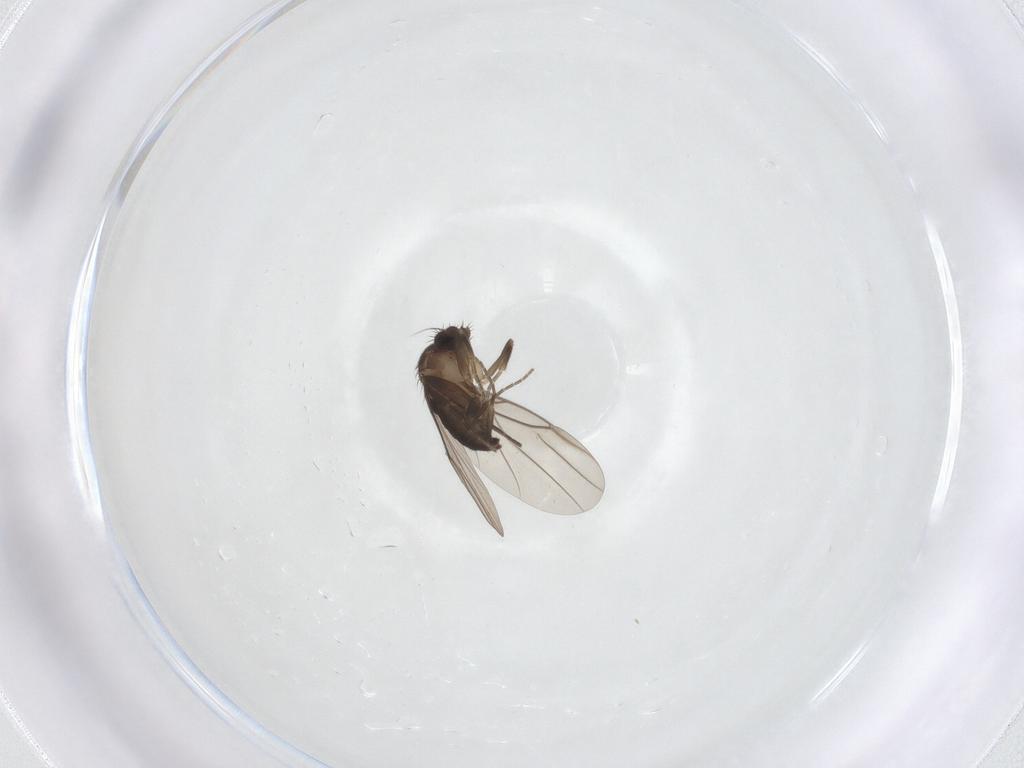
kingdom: Animalia
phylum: Arthropoda
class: Insecta
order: Diptera
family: Phoridae
